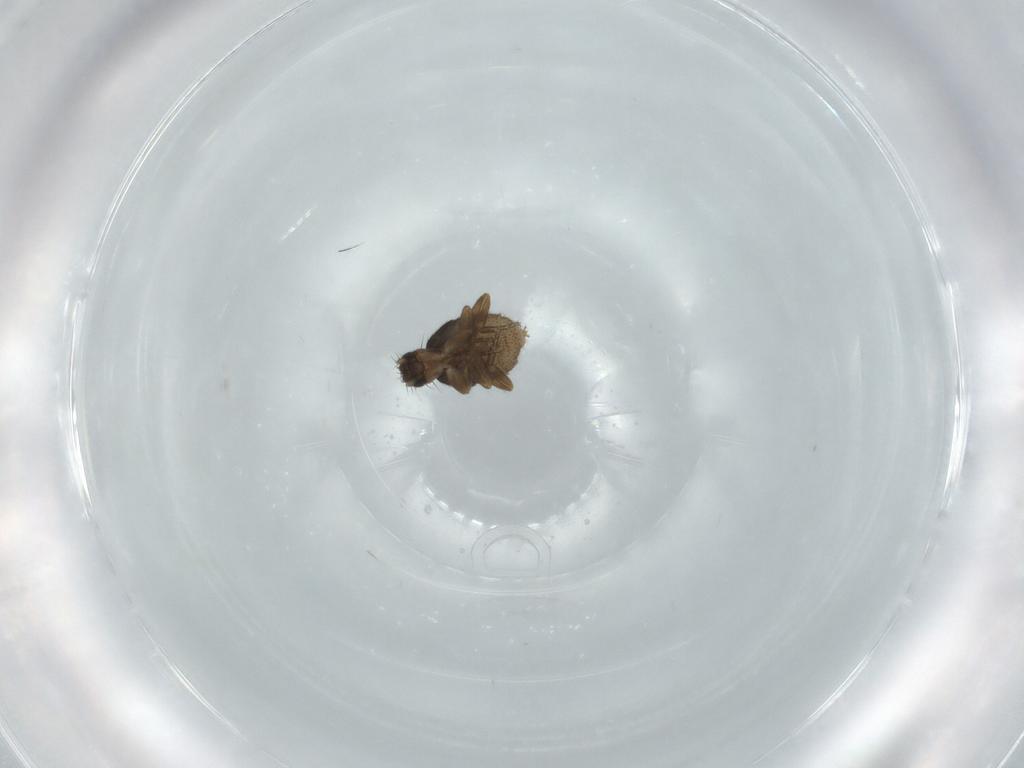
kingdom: Animalia
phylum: Arthropoda
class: Insecta
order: Diptera
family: Phoridae
